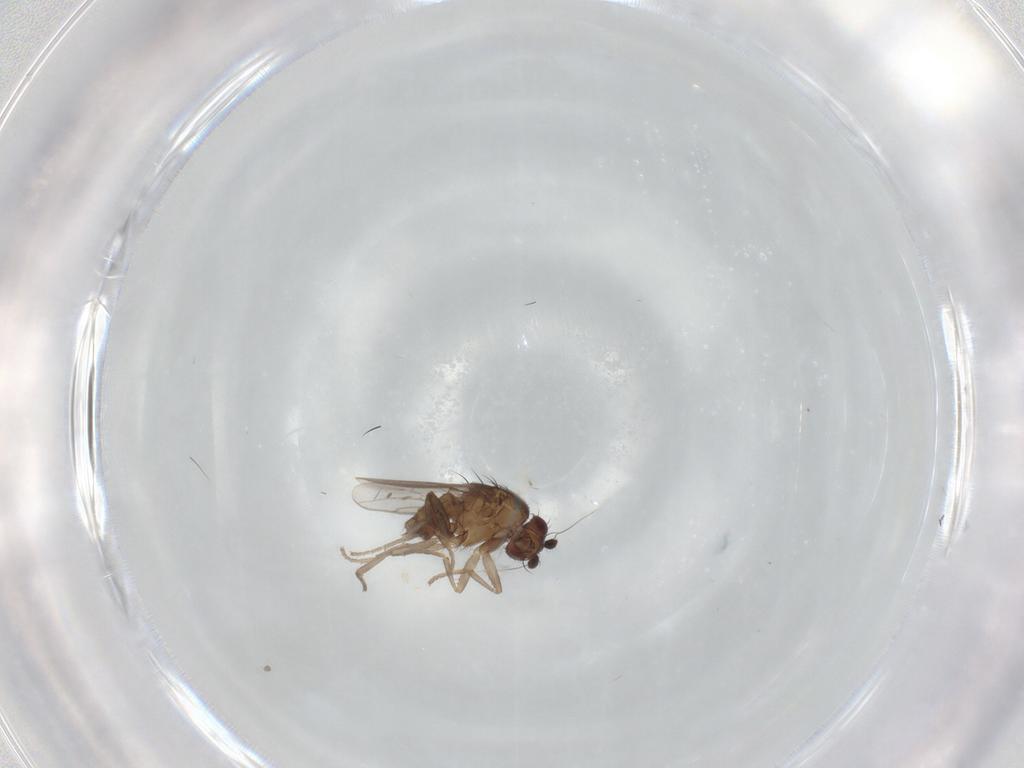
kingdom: Animalia
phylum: Arthropoda
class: Insecta
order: Diptera
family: Sphaeroceridae
